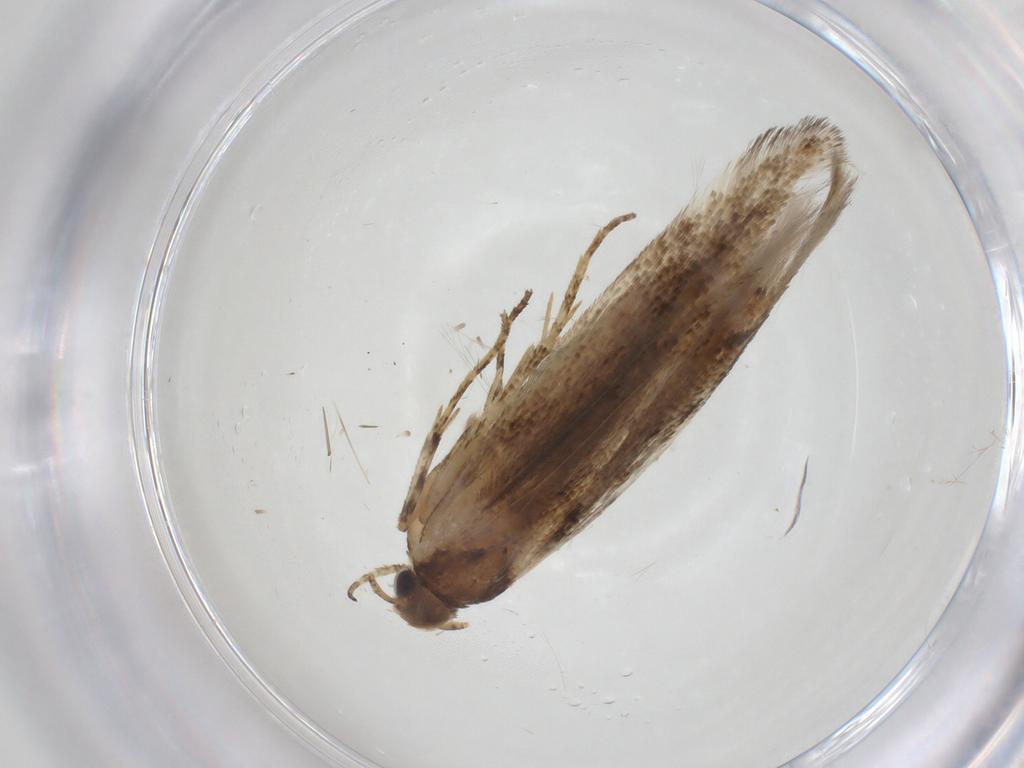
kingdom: Animalia
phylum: Arthropoda
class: Insecta
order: Lepidoptera
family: Gelechiidae
